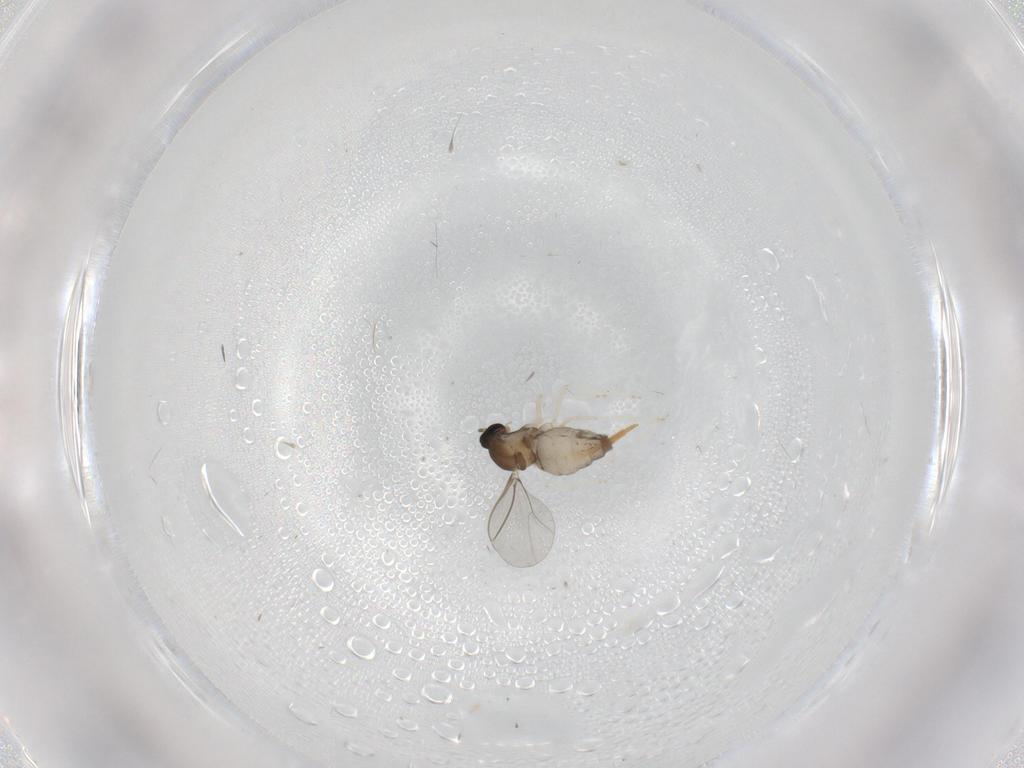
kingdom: Animalia
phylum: Arthropoda
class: Insecta
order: Diptera
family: Cecidomyiidae
